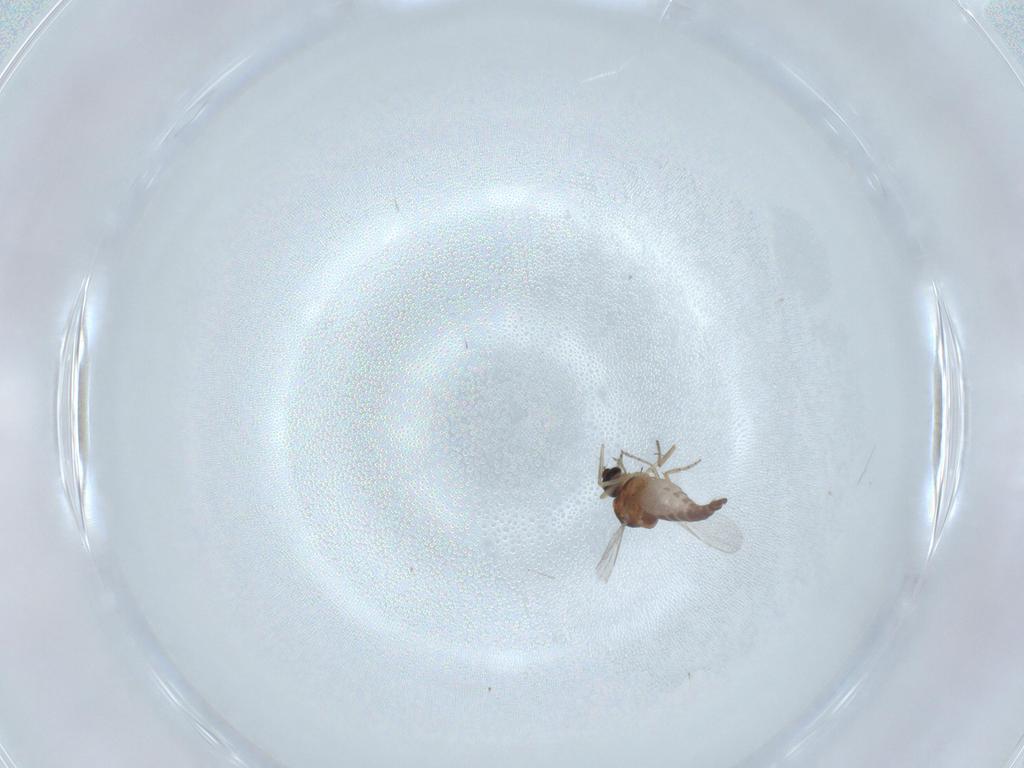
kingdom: Animalia
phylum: Arthropoda
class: Insecta
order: Diptera
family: Ceratopogonidae
